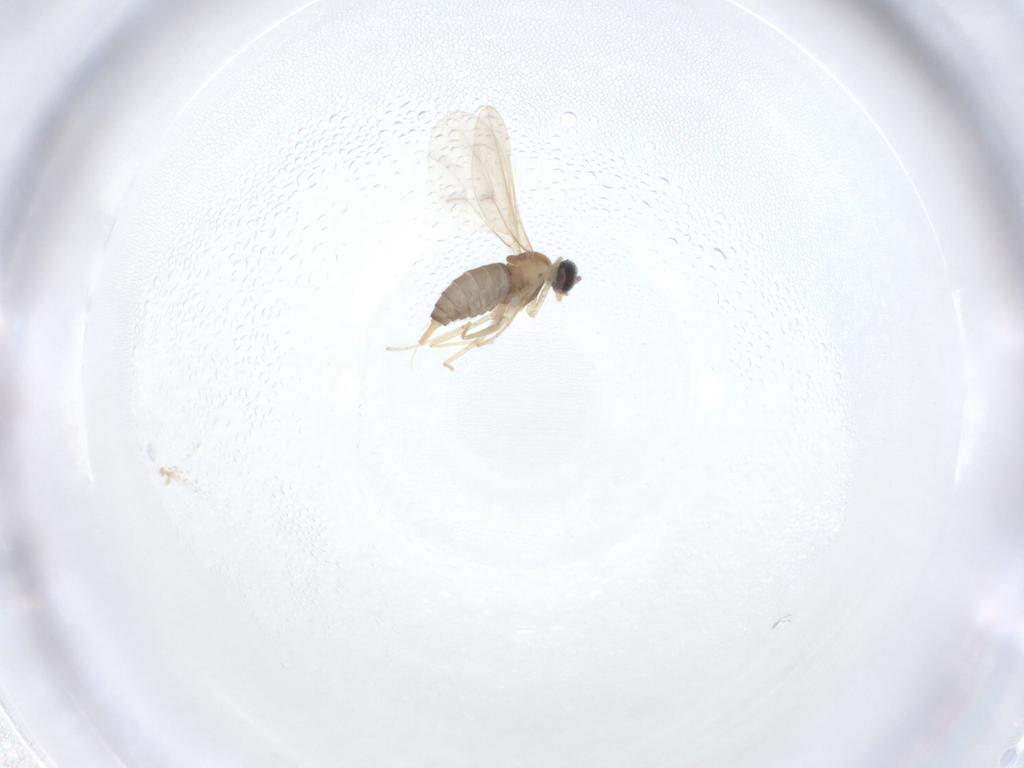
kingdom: Animalia
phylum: Arthropoda
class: Insecta
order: Diptera
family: Cecidomyiidae
